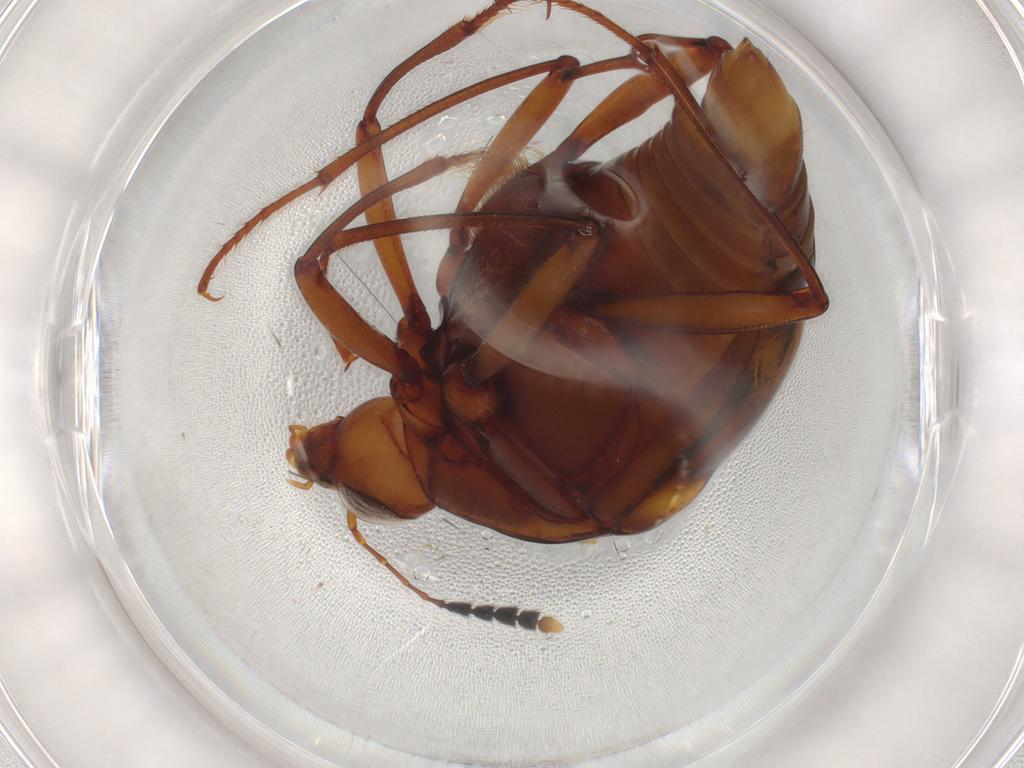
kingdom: Animalia
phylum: Arthropoda
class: Insecta
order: Coleoptera
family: Staphylinidae
